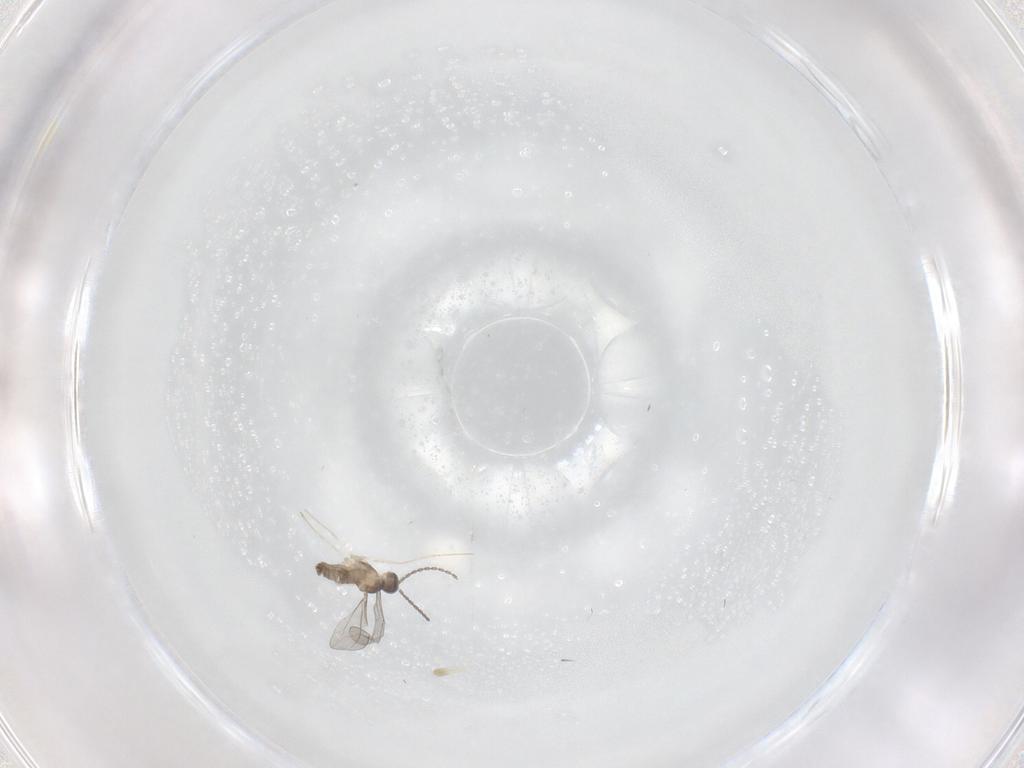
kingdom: Animalia
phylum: Arthropoda
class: Insecta
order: Diptera
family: Cecidomyiidae
